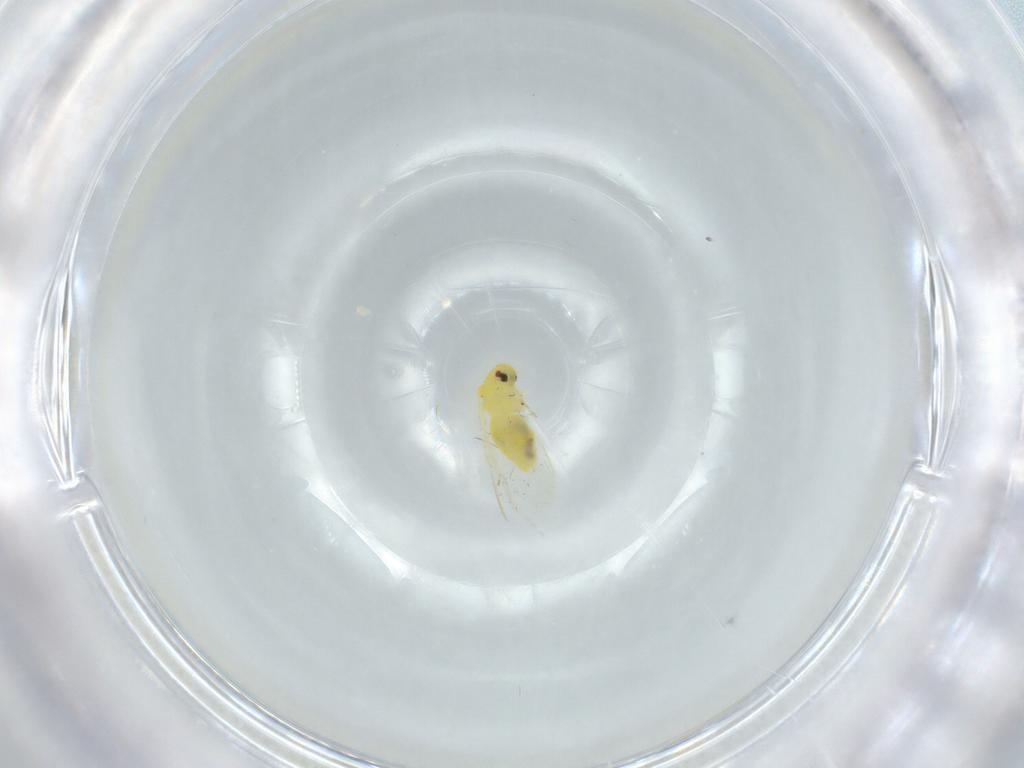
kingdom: Animalia
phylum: Arthropoda
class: Insecta
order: Hemiptera
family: Aleyrodidae
